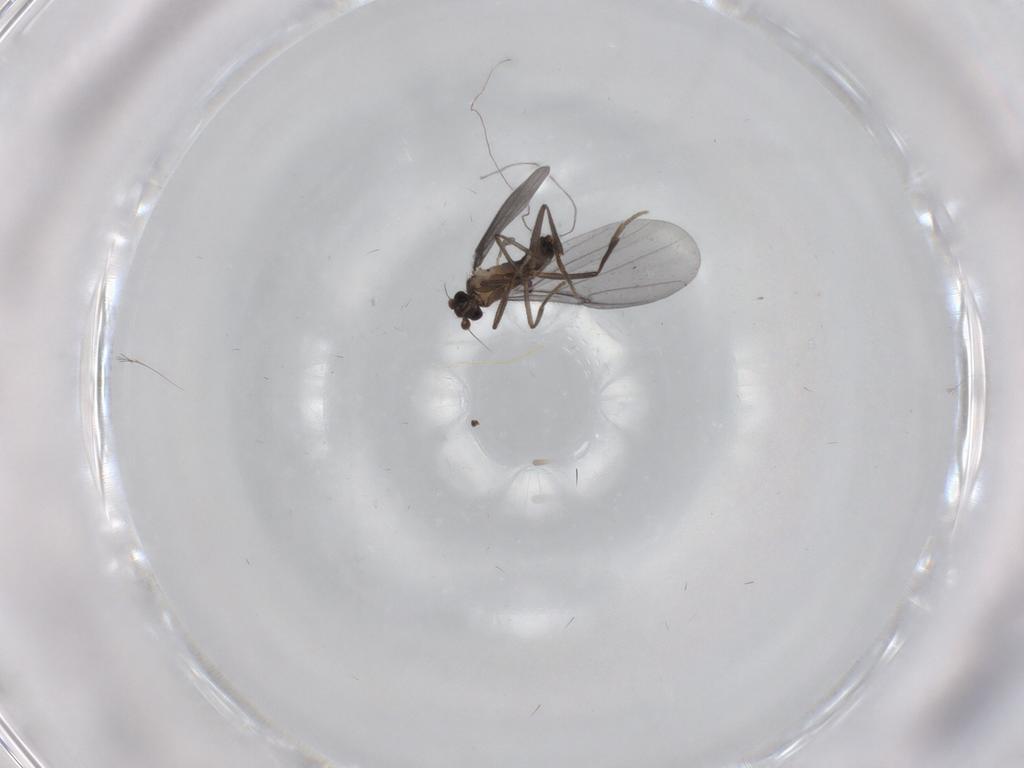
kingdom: Animalia
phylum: Arthropoda
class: Insecta
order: Diptera
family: Phoridae
